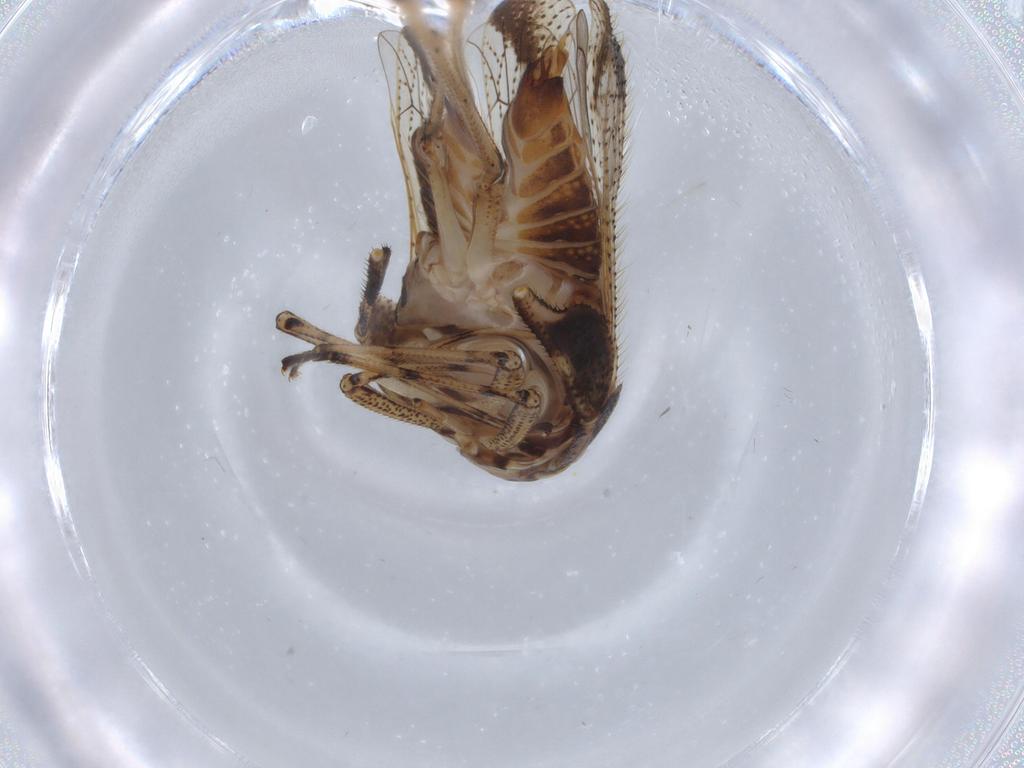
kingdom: Animalia
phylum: Arthropoda
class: Insecta
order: Hemiptera
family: Delphacidae
